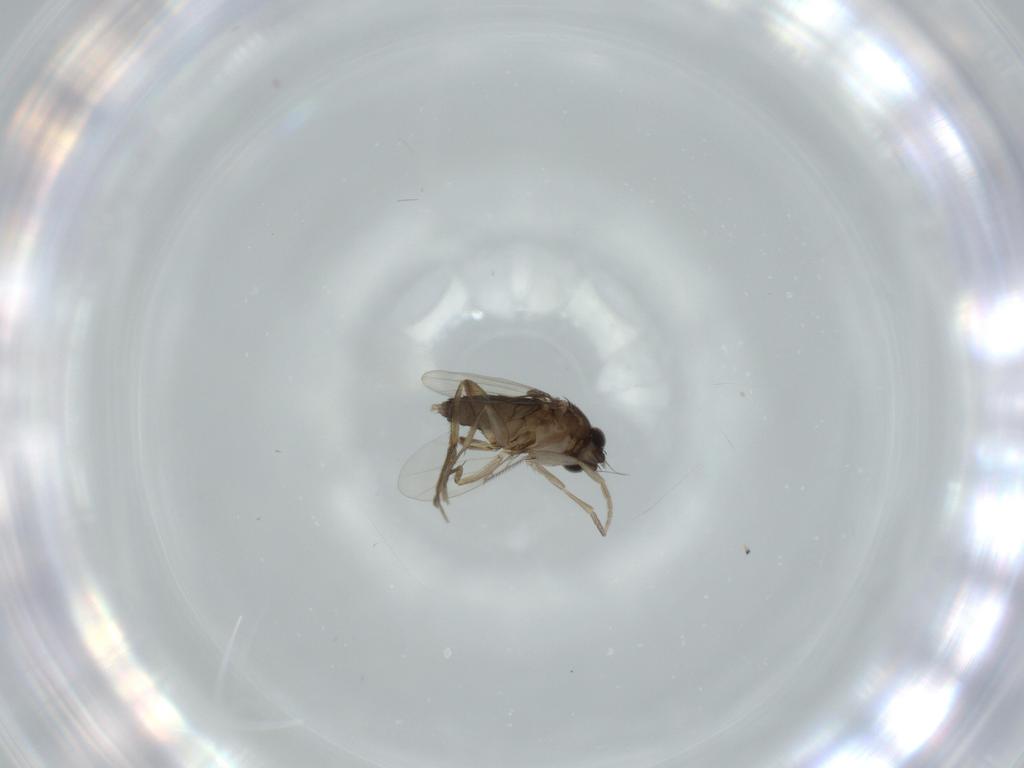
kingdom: Animalia
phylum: Arthropoda
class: Insecta
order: Diptera
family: Phoridae
